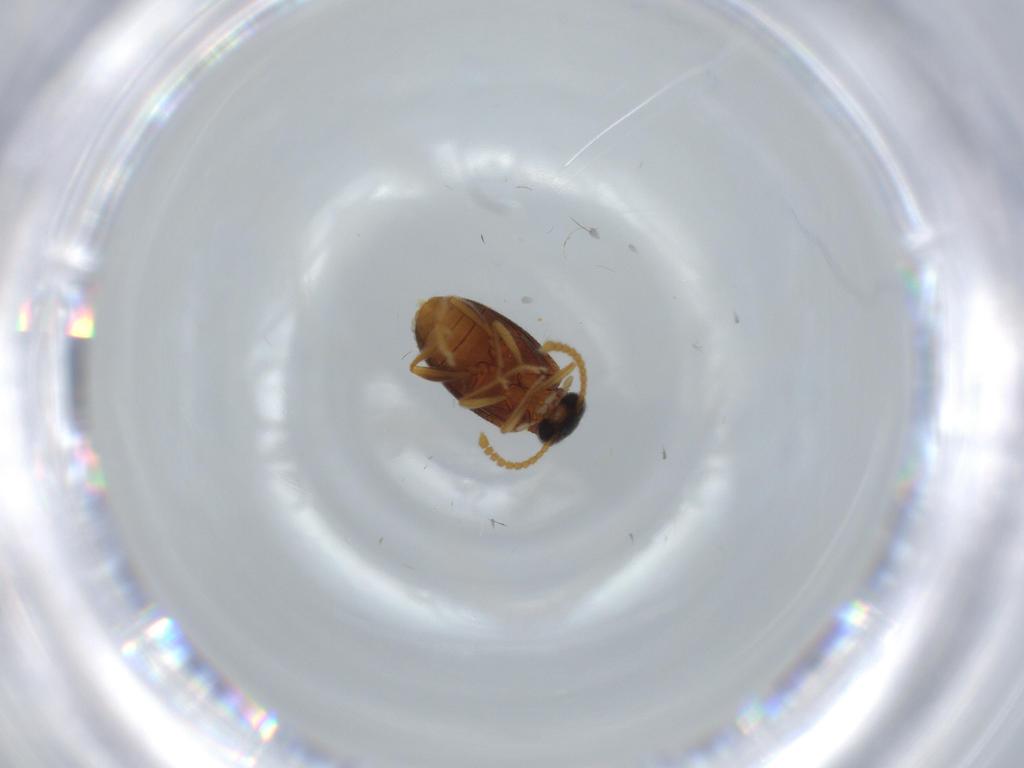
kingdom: Animalia
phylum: Arthropoda
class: Insecta
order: Coleoptera
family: Aderidae
